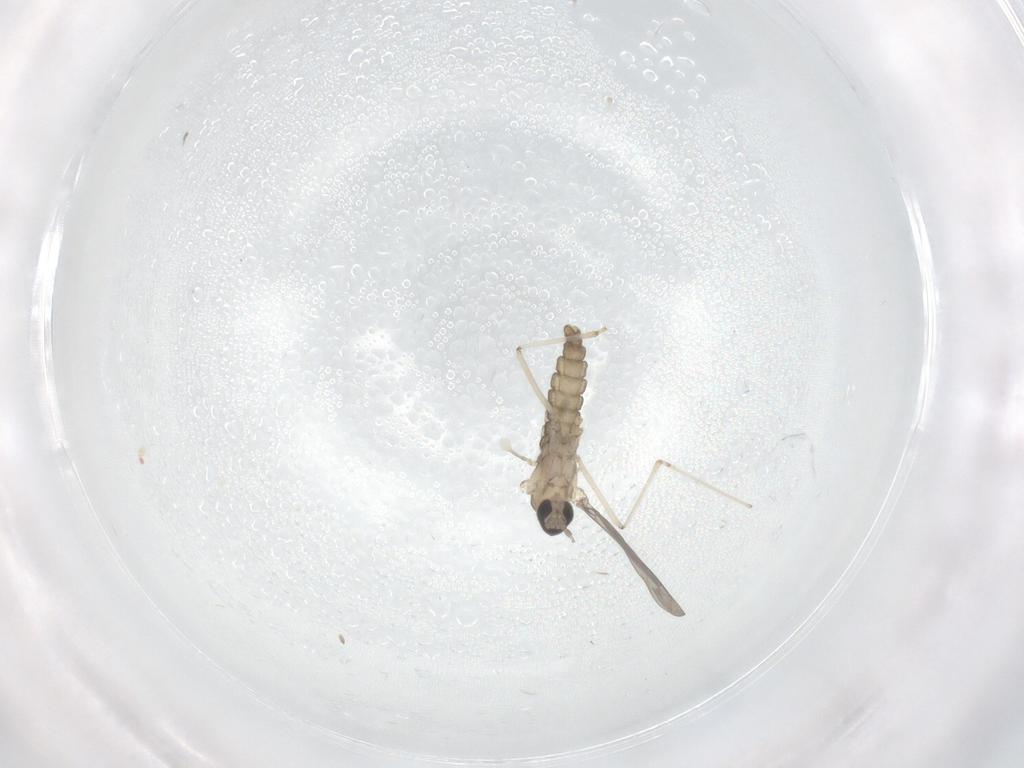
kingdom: Animalia
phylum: Arthropoda
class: Insecta
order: Diptera
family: Cecidomyiidae
